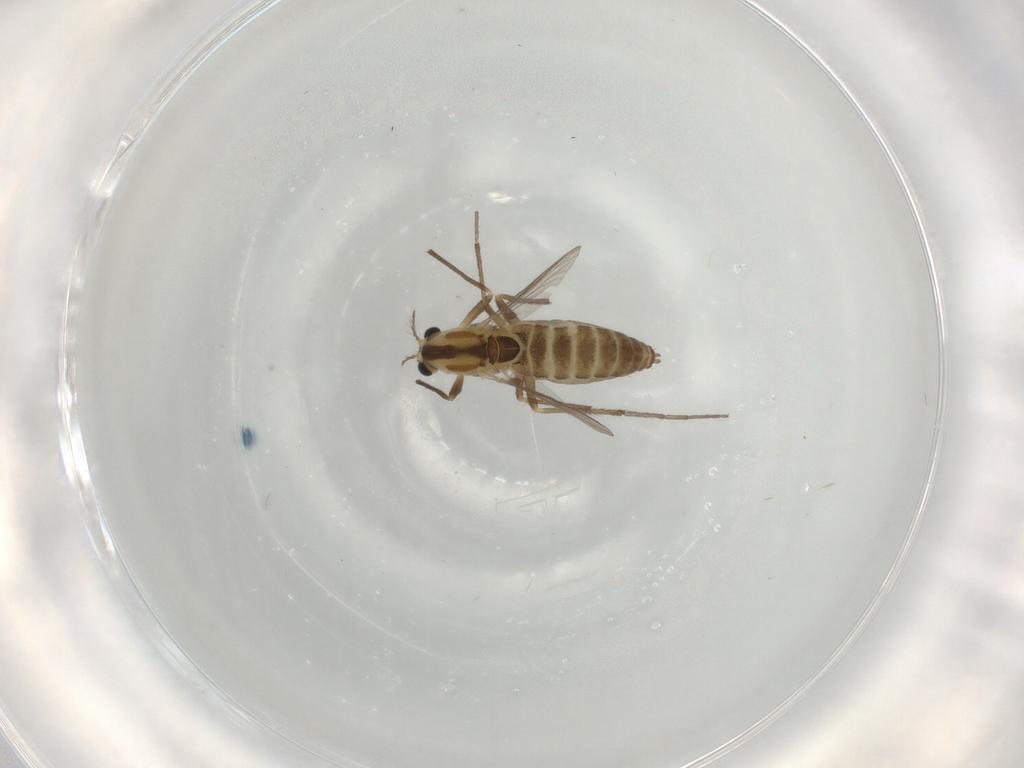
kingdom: Animalia
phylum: Arthropoda
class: Insecta
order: Diptera
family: Chironomidae
